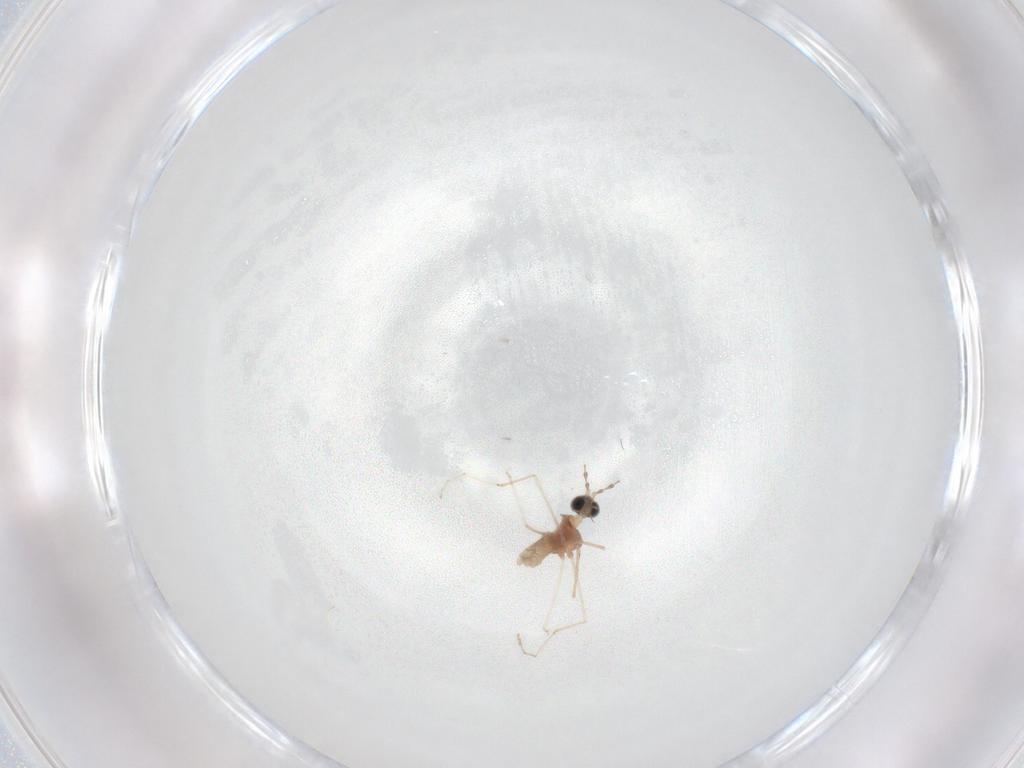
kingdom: Animalia
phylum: Arthropoda
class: Insecta
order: Diptera
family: Cecidomyiidae
